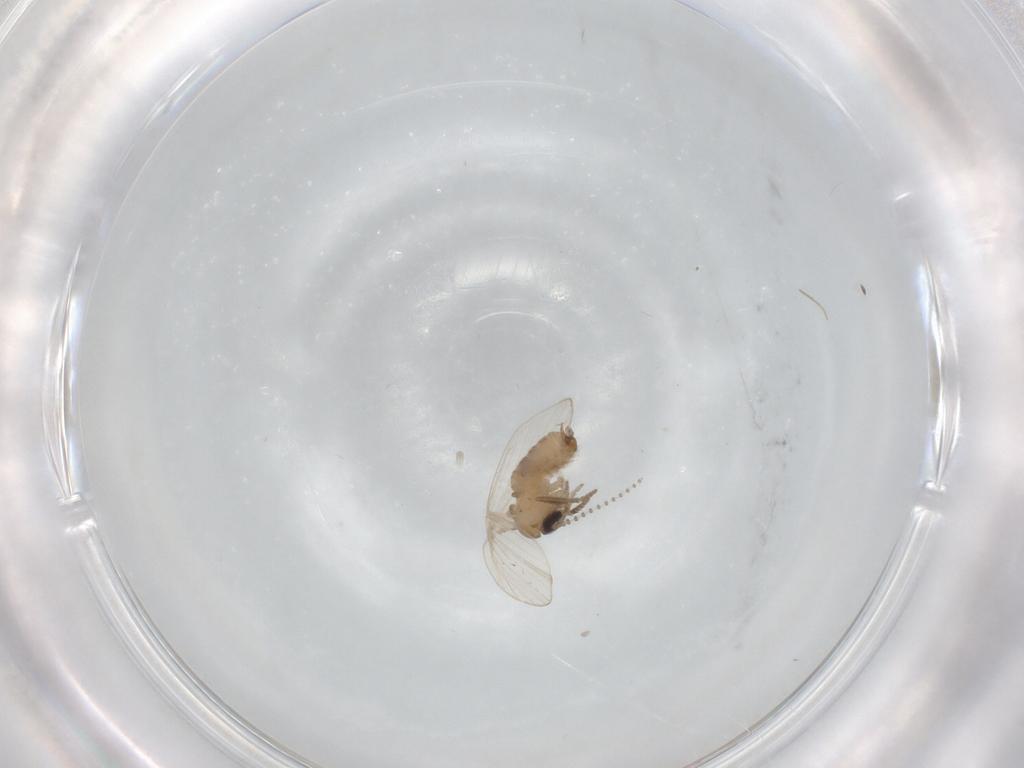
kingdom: Animalia
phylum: Arthropoda
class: Insecta
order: Diptera
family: Psychodidae
